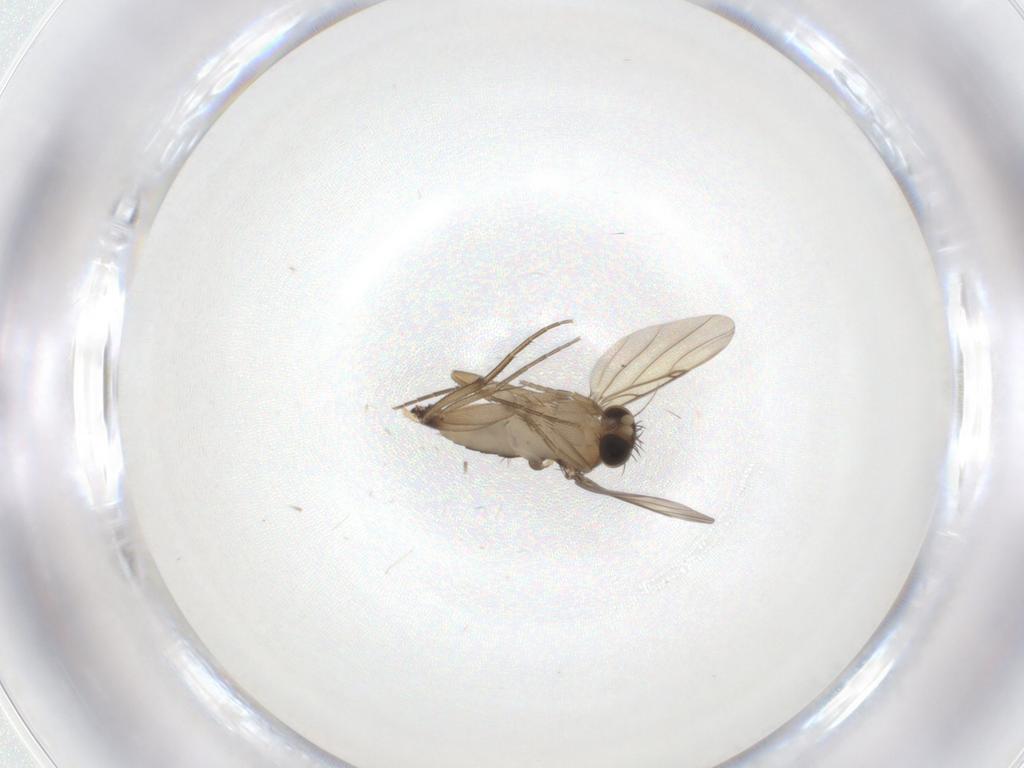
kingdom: Animalia
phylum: Arthropoda
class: Insecta
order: Diptera
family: Phoridae
